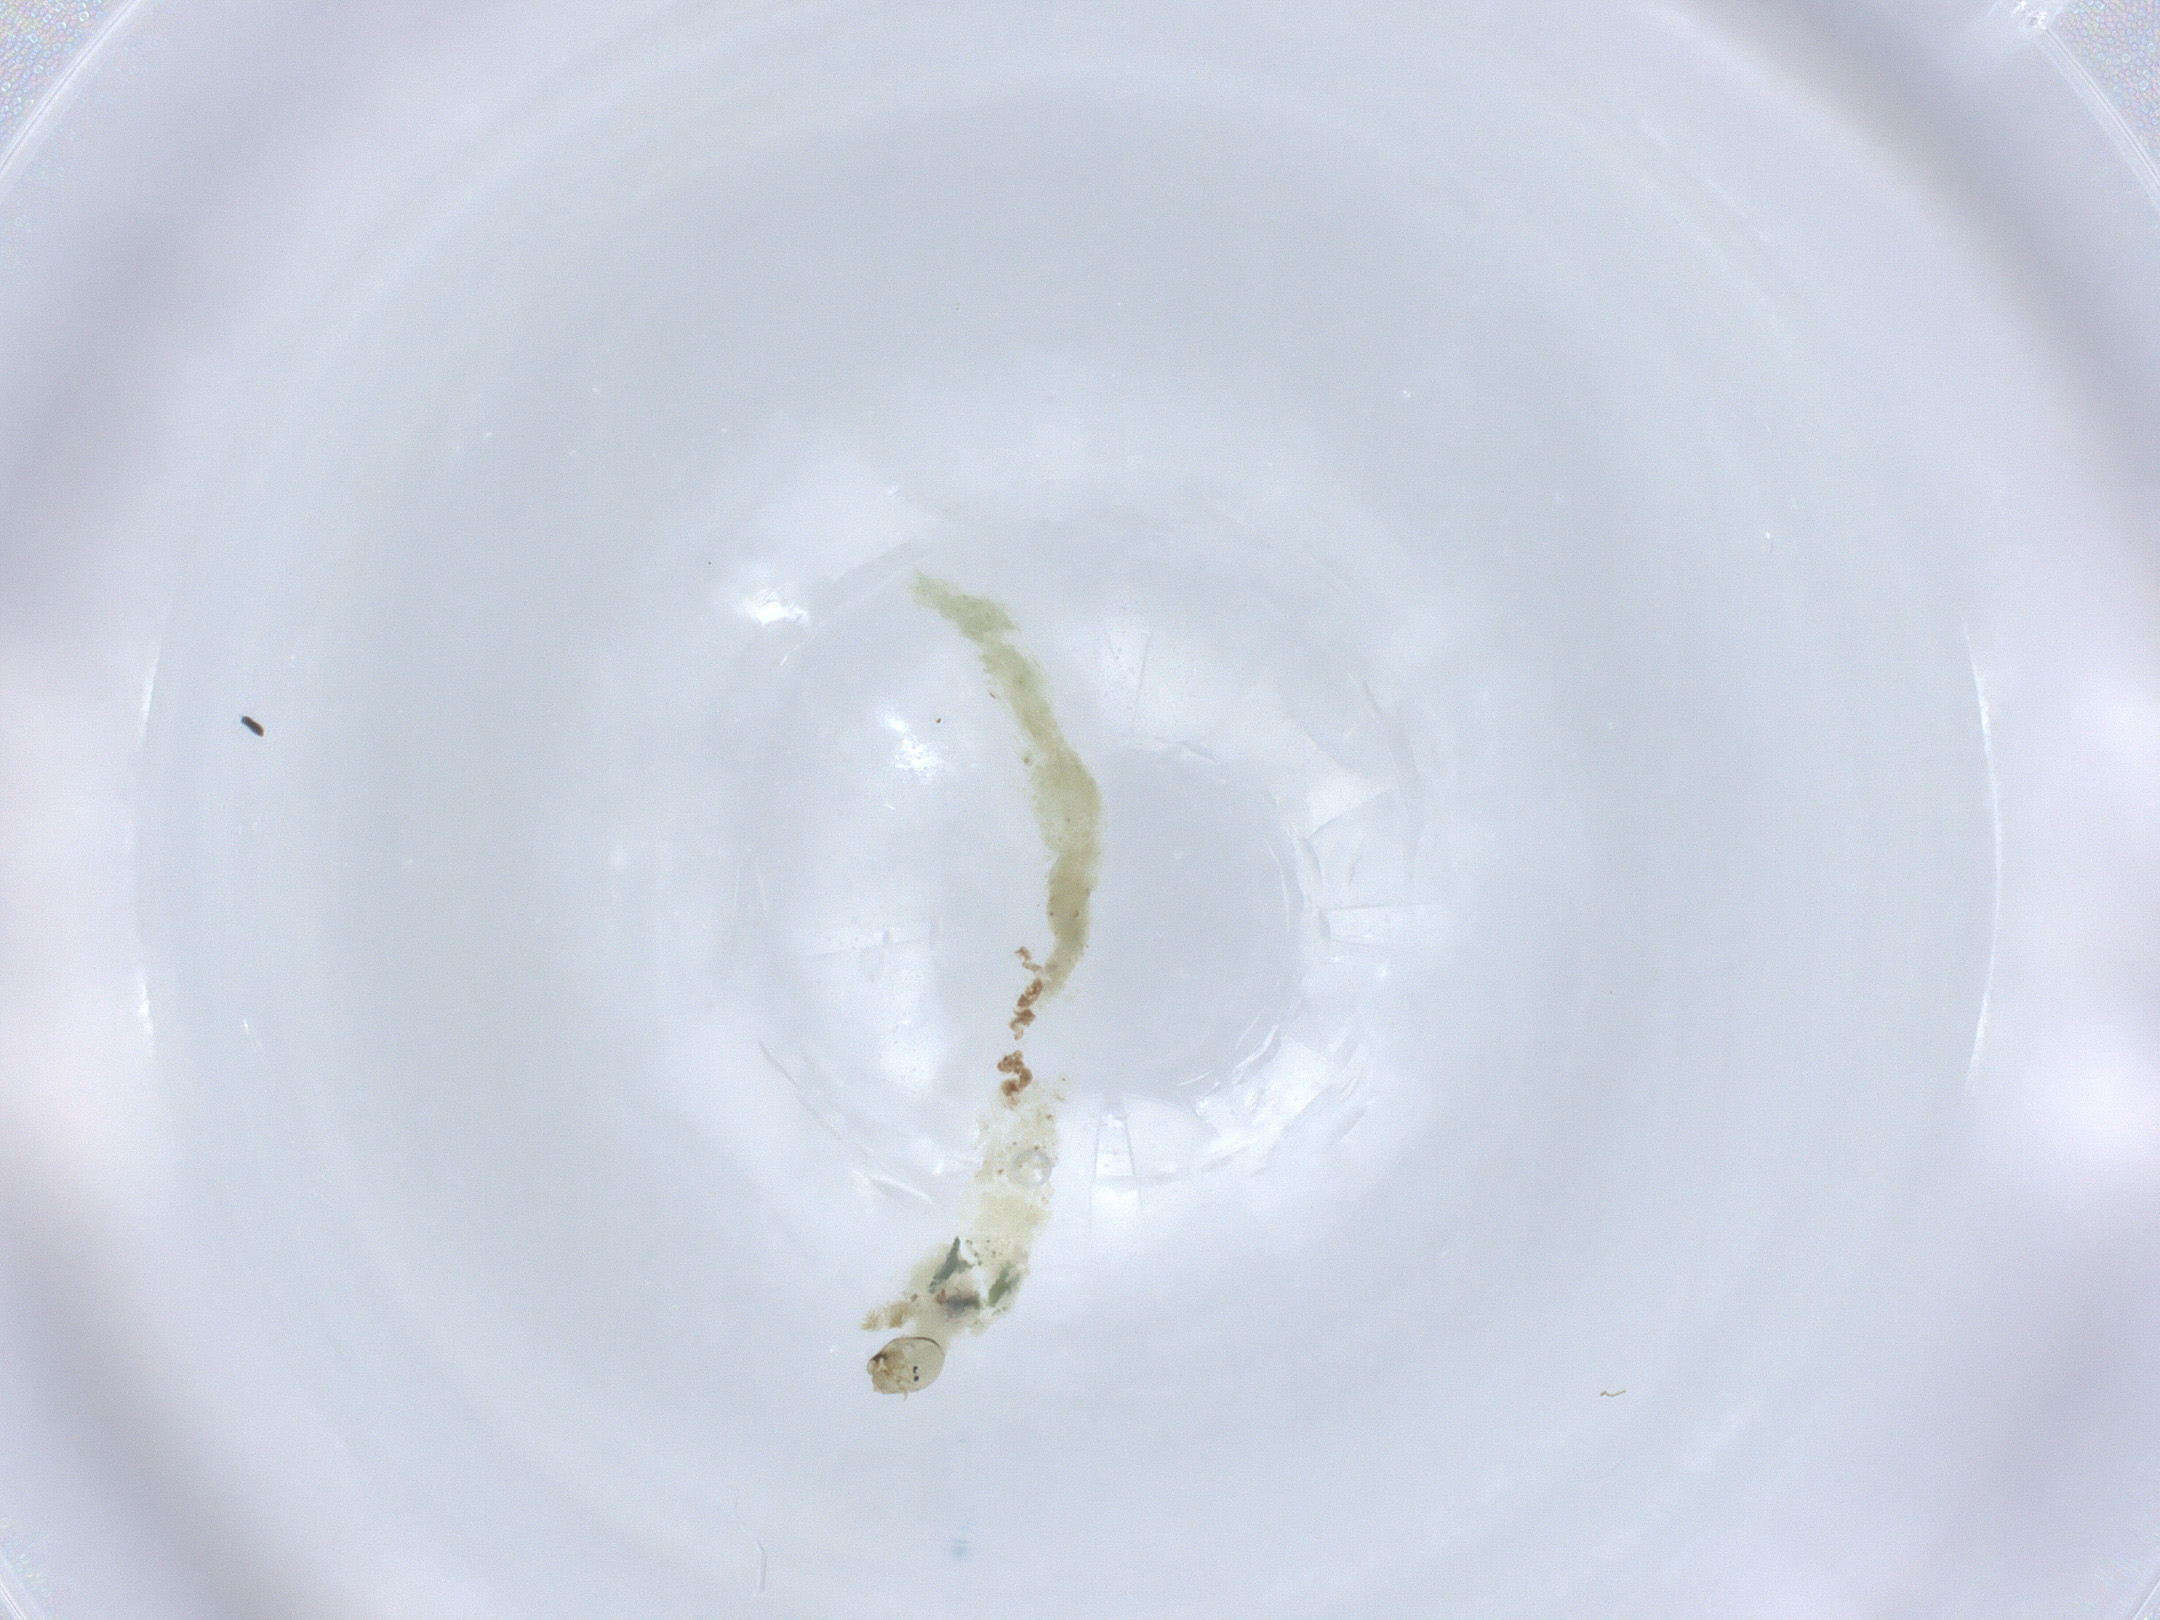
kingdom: Animalia
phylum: Arthropoda
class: Insecta
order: Diptera
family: Chironomidae
